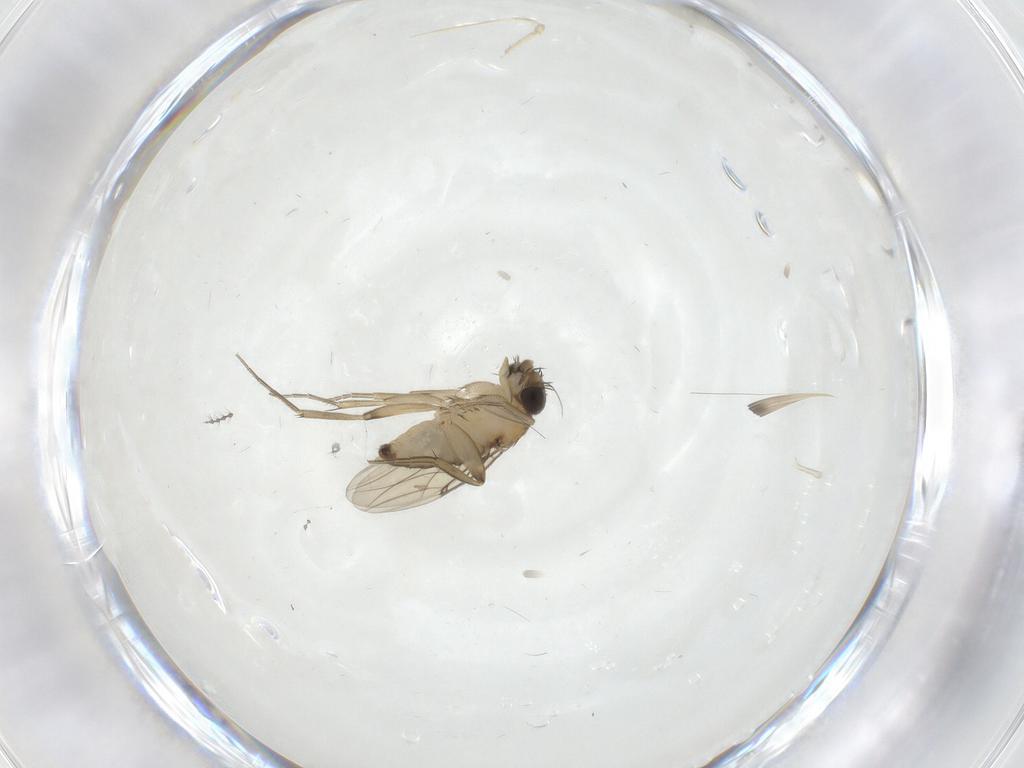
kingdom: Animalia
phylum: Arthropoda
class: Insecta
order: Diptera
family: Phoridae
